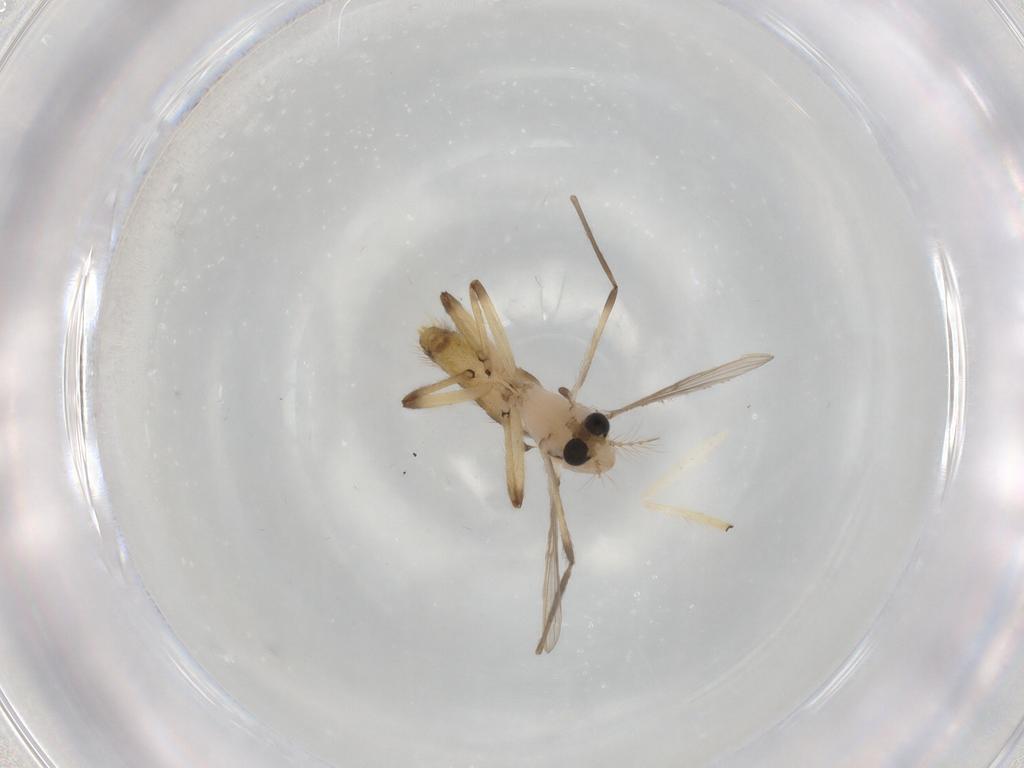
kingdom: Animalia
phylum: Arthropoda
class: Insecta
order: Diptera
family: Chironomidae
